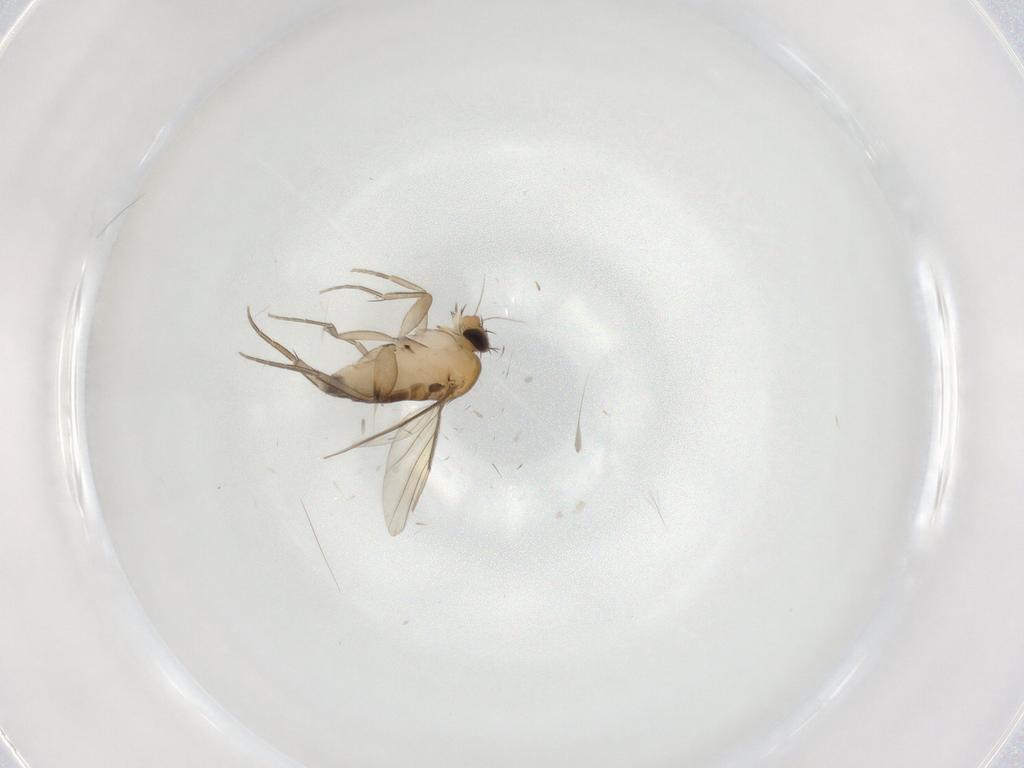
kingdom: Animalia
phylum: Arthropoda
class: Insecta
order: Diptera
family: Phoridae
